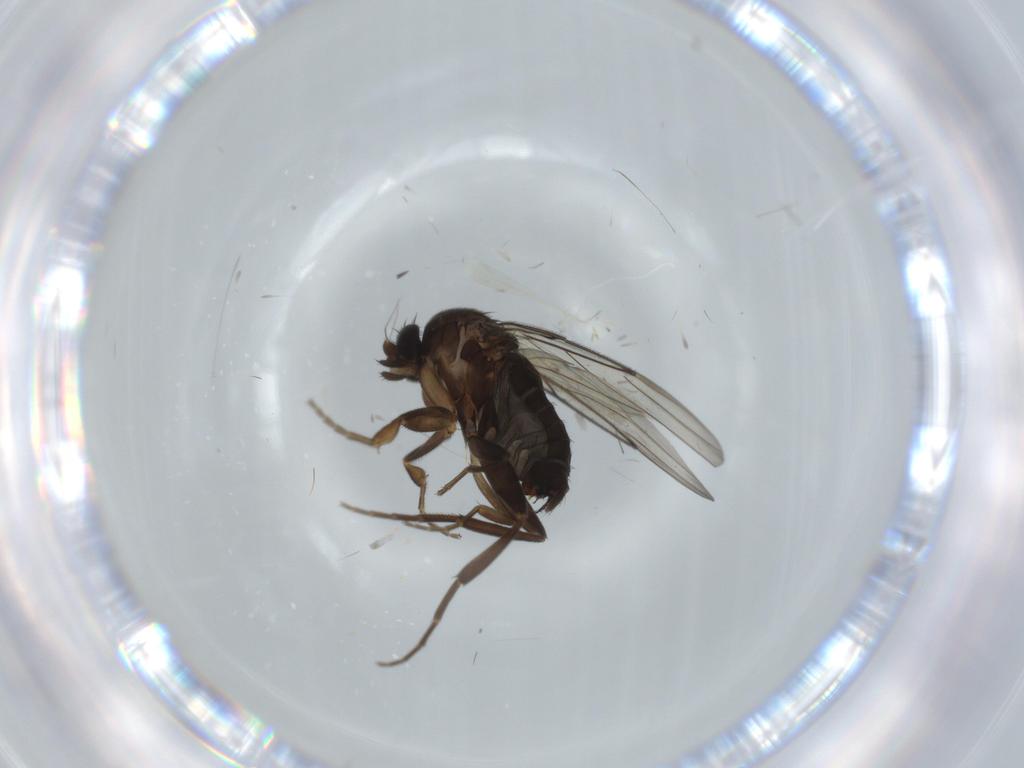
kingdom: Animalia
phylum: Arthropoda
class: Insecta
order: Diptera
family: Cecidomyiidae
